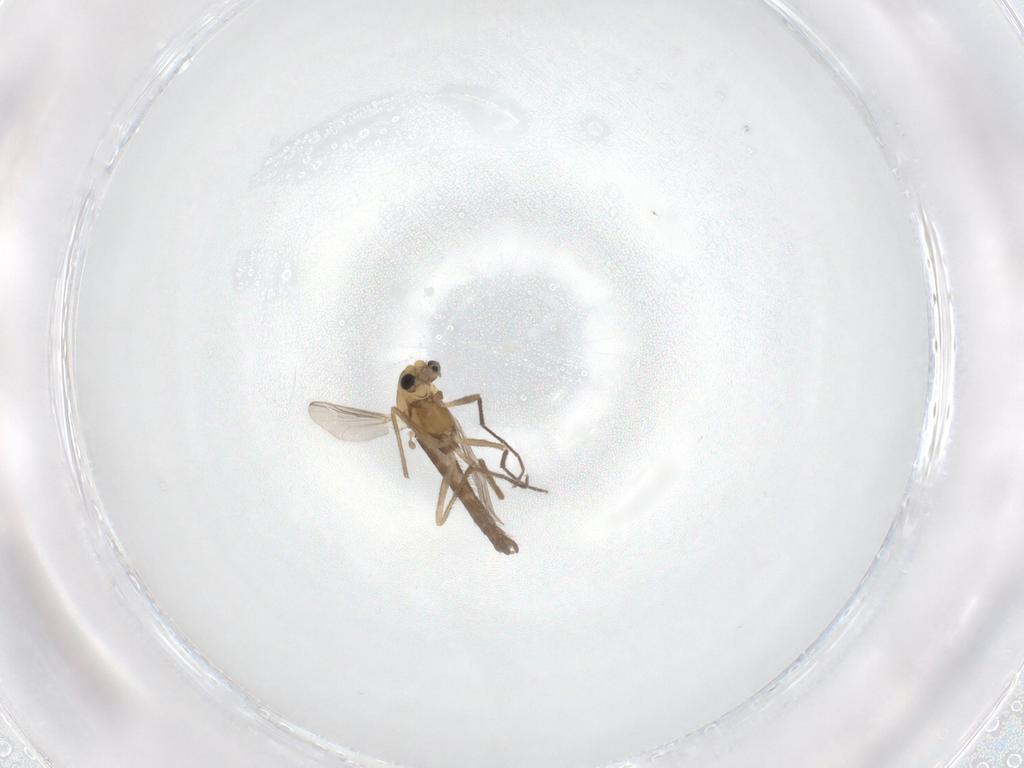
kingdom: Animalia
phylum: Arthropoda
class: Insecta
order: Diptera
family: Chironomidae
